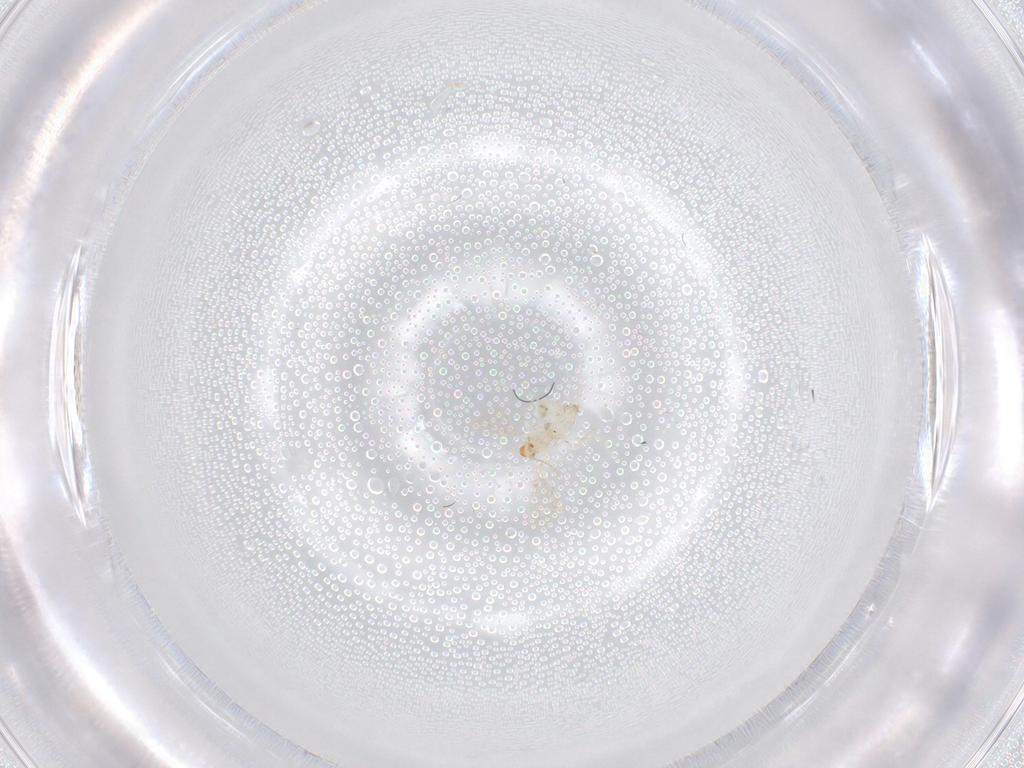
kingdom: Animalia
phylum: Arthropoda
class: Insecta
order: Diptera
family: Cecidomyiidae
